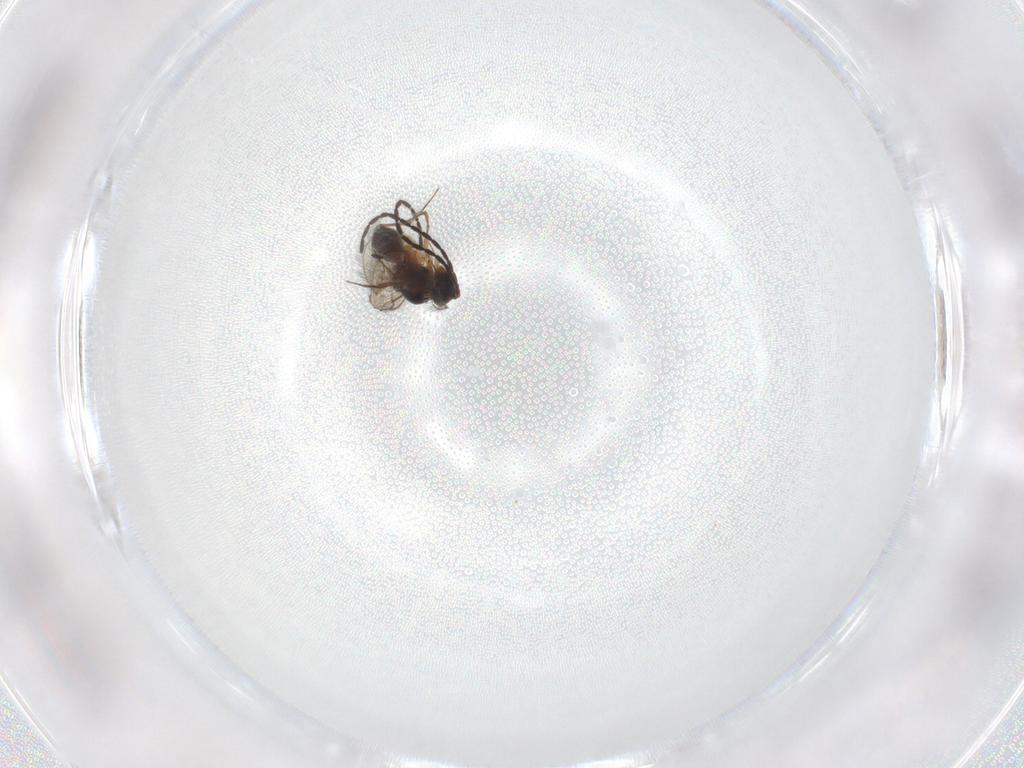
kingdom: Animalia
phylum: Arthropoda
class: Insecta
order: Hymenoptera
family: Figitidae
